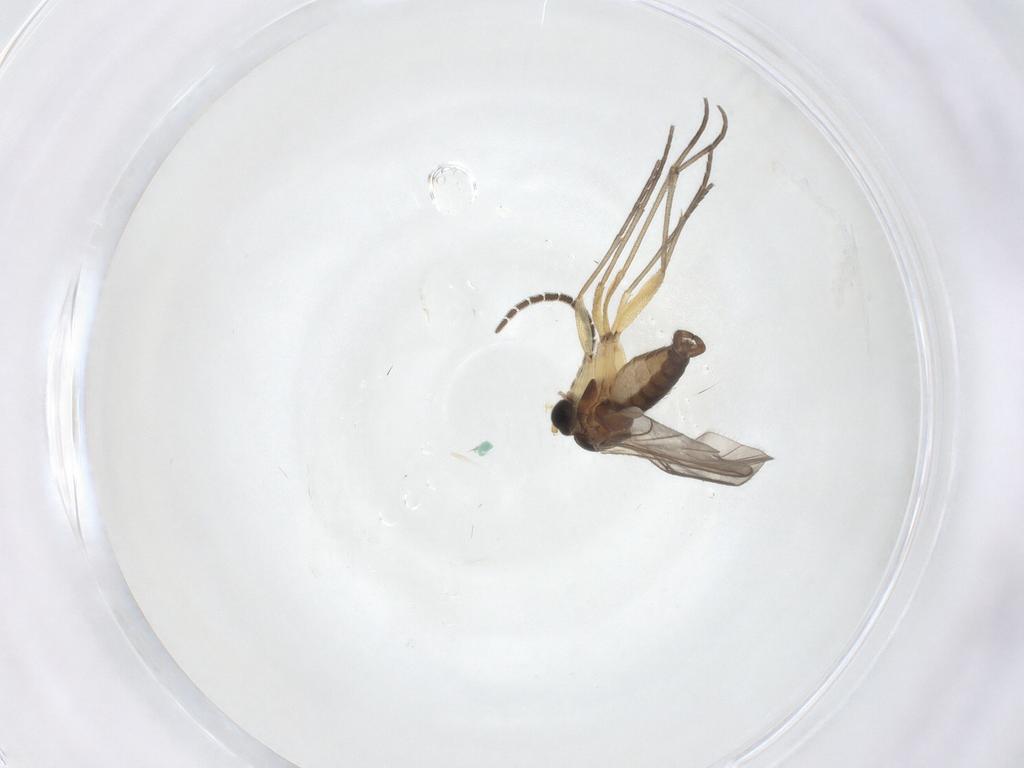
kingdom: Animalia
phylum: Arthropoda
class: Insecta
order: Diptera
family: Sciaridae
